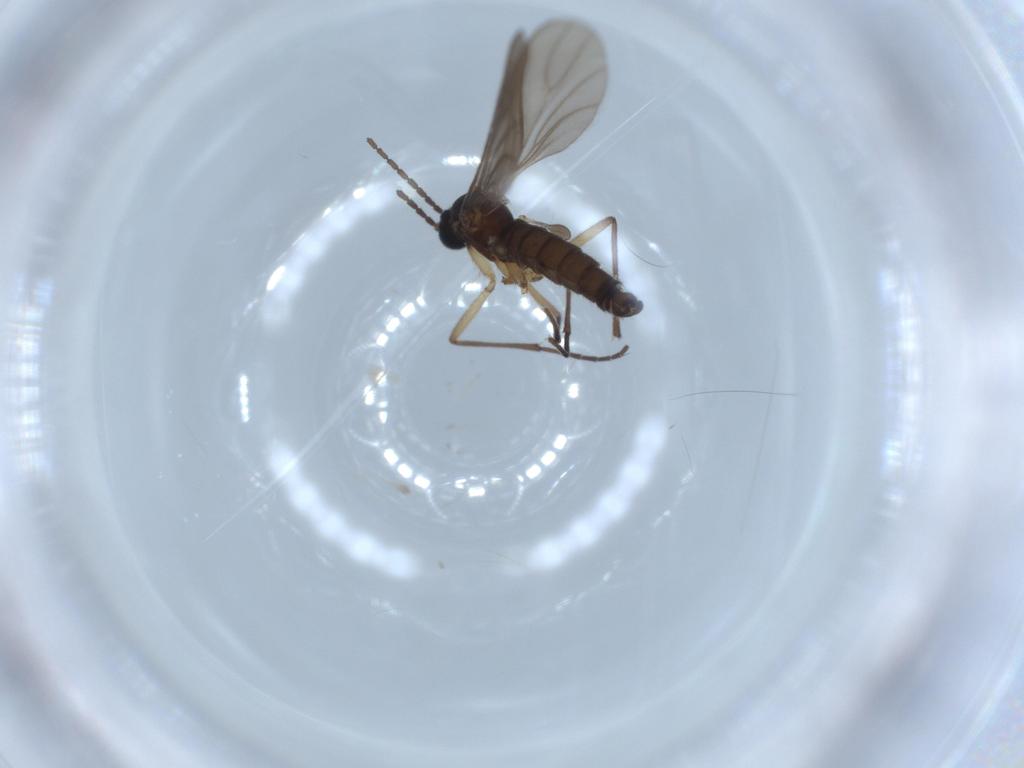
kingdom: Animalia
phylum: Arthropoda
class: Insecta
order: Diptera
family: Sciaridae
